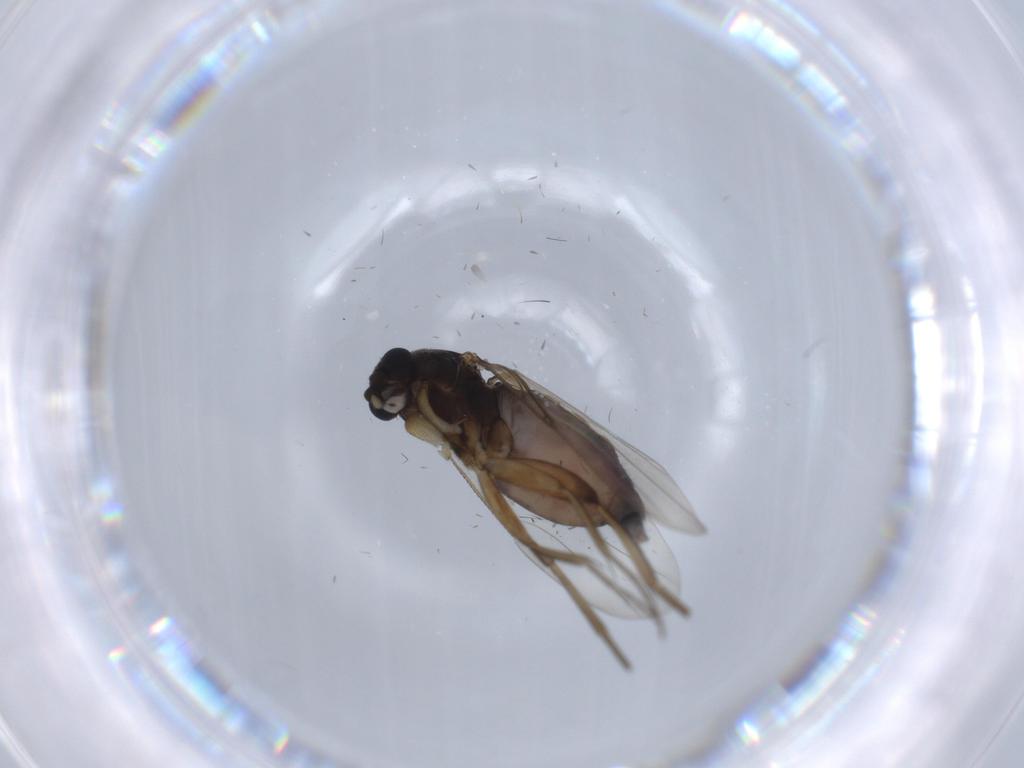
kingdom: Animalia
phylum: Arthropoda
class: Insecta
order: Diptera
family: Phoridae
